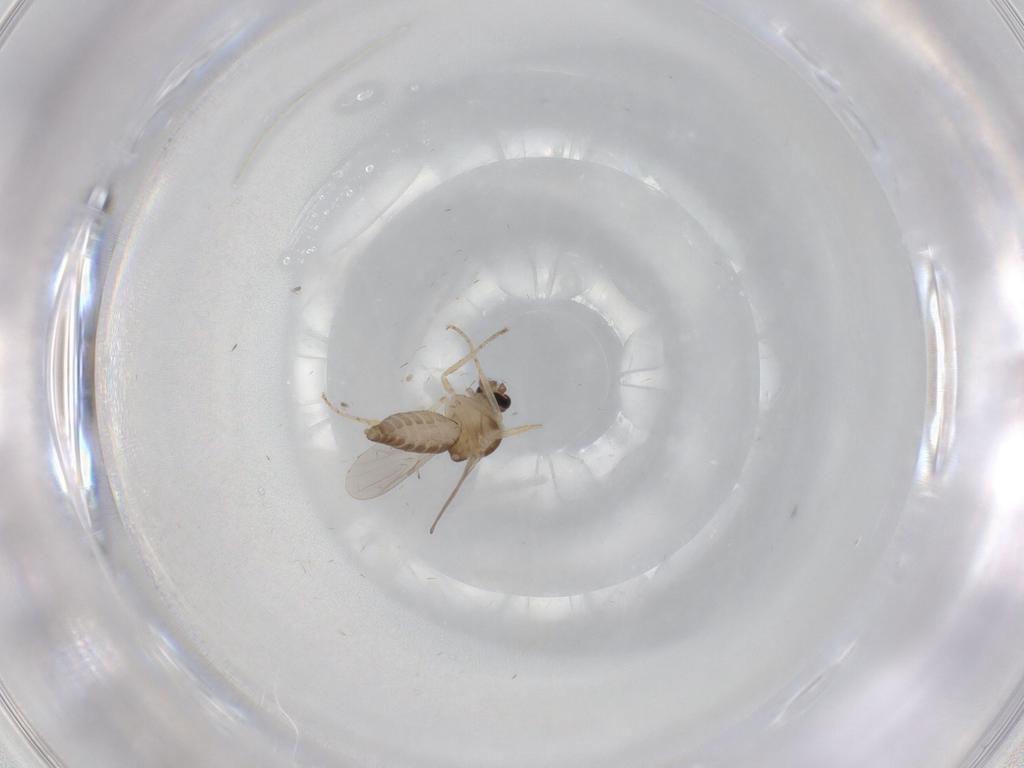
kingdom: Animalia
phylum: Arthropoda
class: Insecta
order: Diptera
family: Ceratopogonidae
